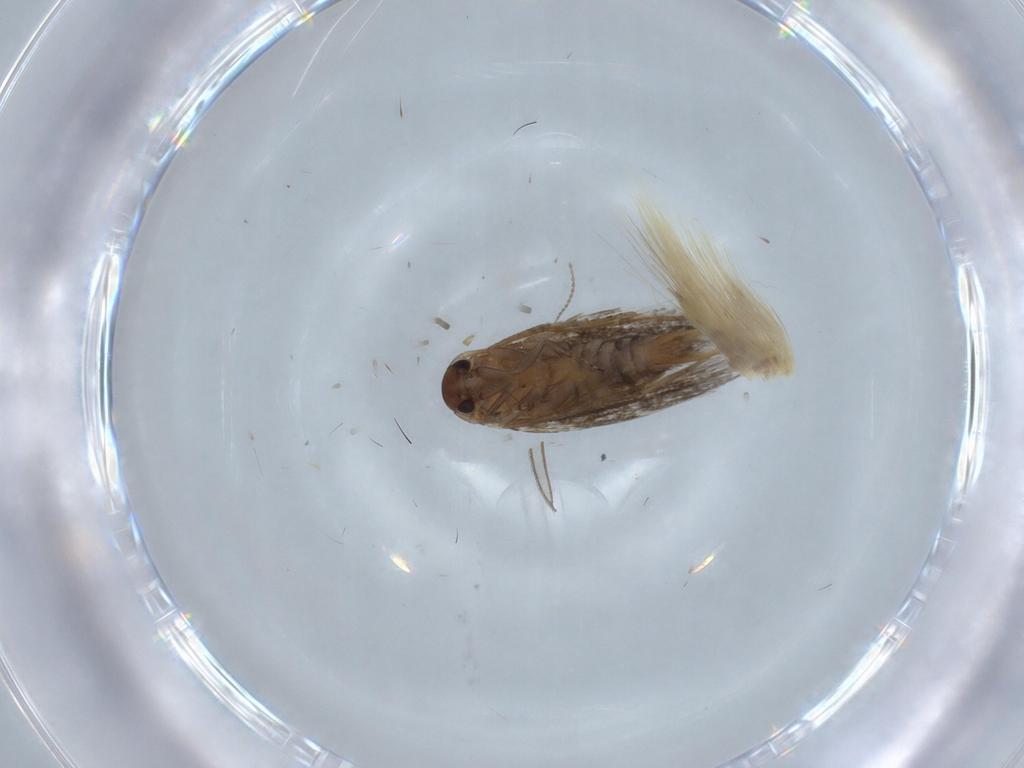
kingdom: Animalia
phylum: Arthropoda
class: Insecta
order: Lepidoptera
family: Elachistidae
